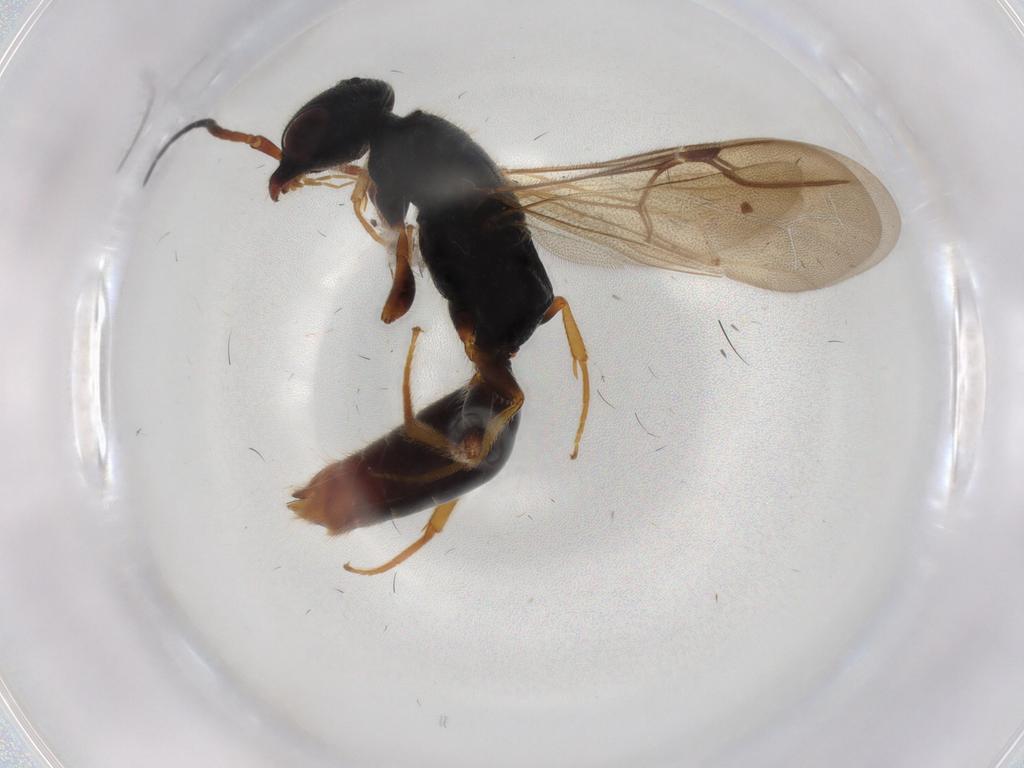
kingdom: Animalia
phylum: Arthropoda
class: Insecta
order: Hymenoptera
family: Bethylidae
